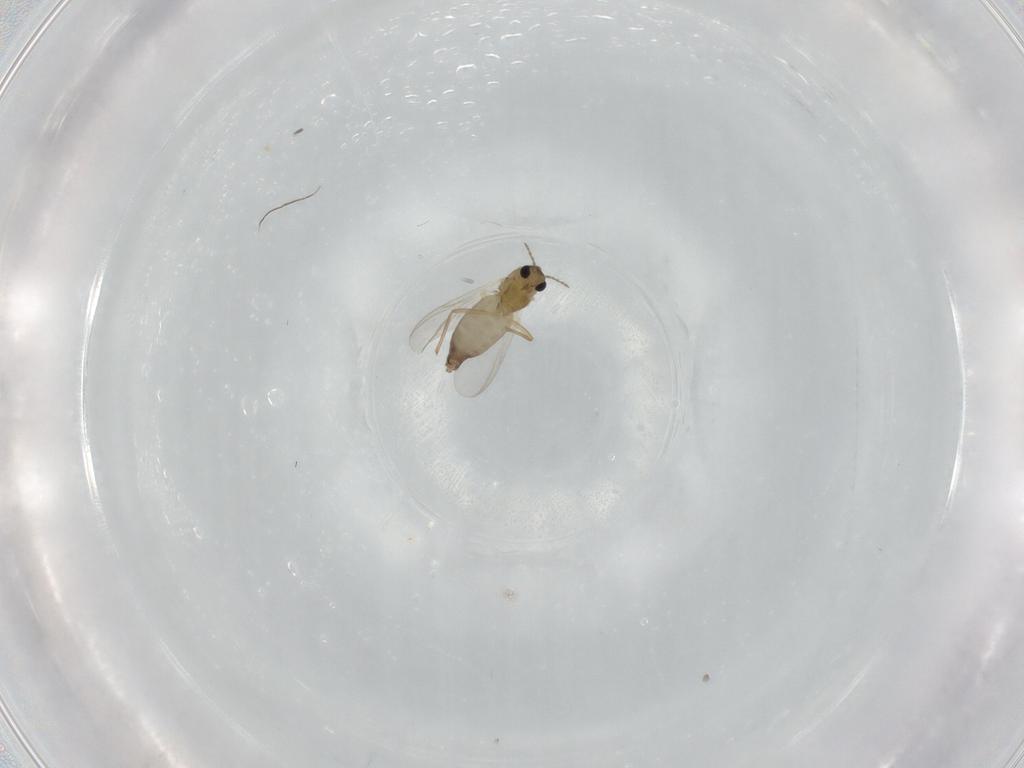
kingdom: Animalia
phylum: Arthropoda
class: Insecta
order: Diptera
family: Chironomidae
